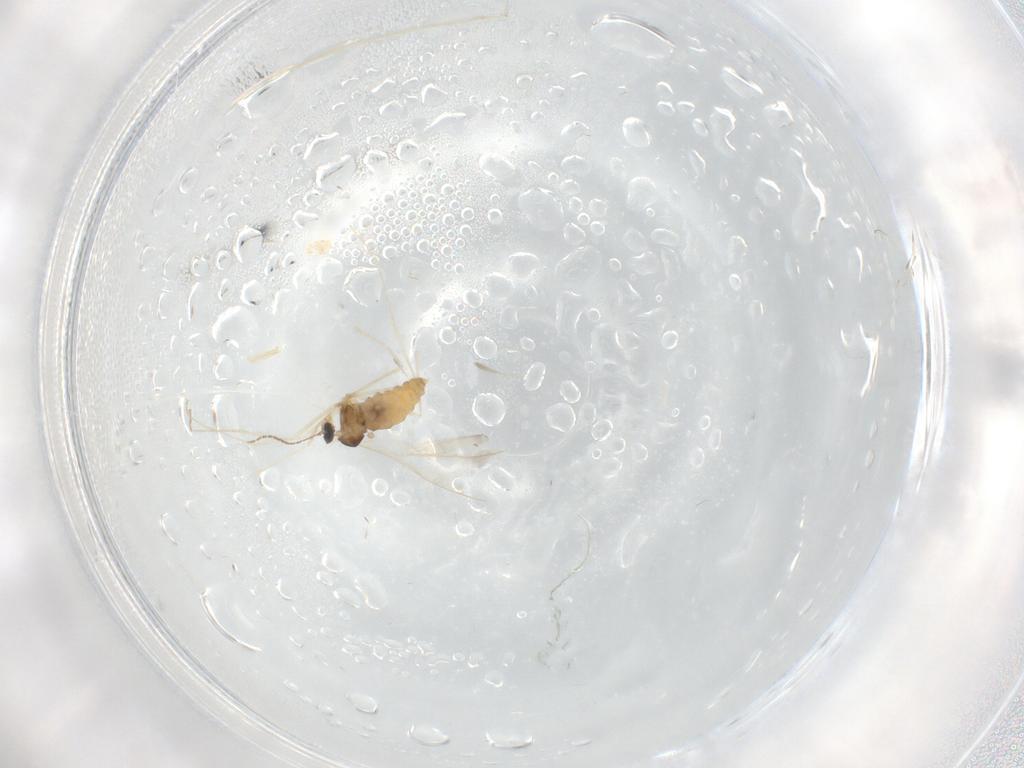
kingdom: Animalia
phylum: Arthropoda
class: Insecta
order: Diptera
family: Cecidomyiidae
